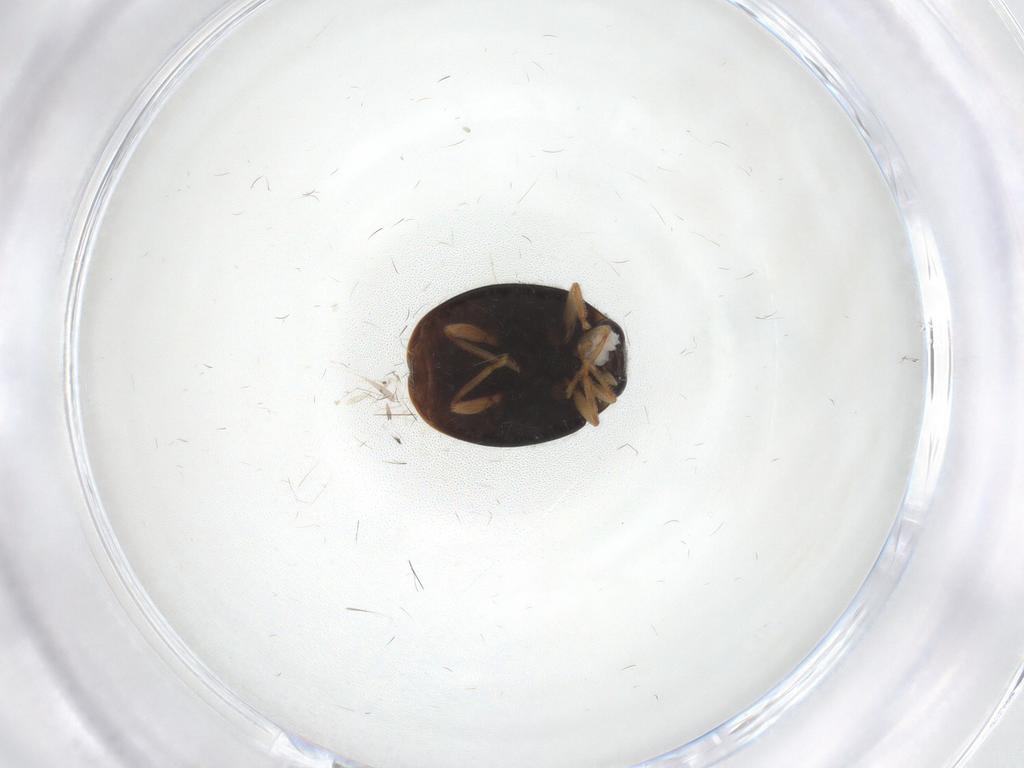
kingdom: Animalia
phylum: Arthropoda
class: Insecta
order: Coleoptera
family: Coccinellidae
